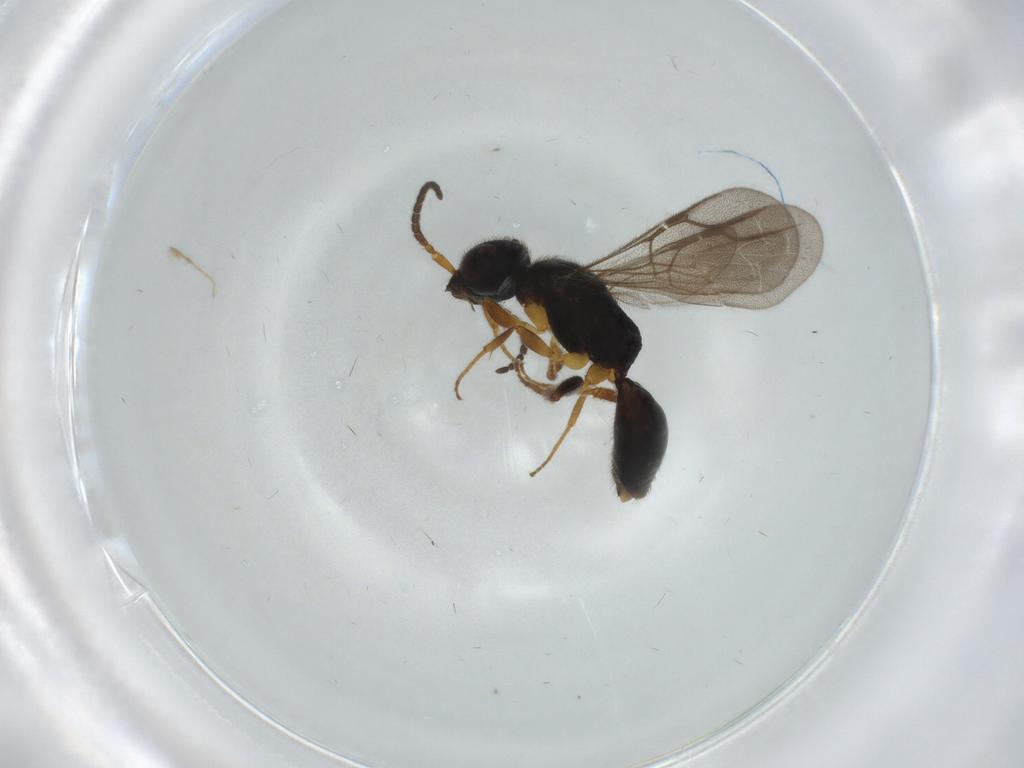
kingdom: Animalia
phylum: Arthropoda
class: Insecta
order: Hymenoptera
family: Bethylidae
